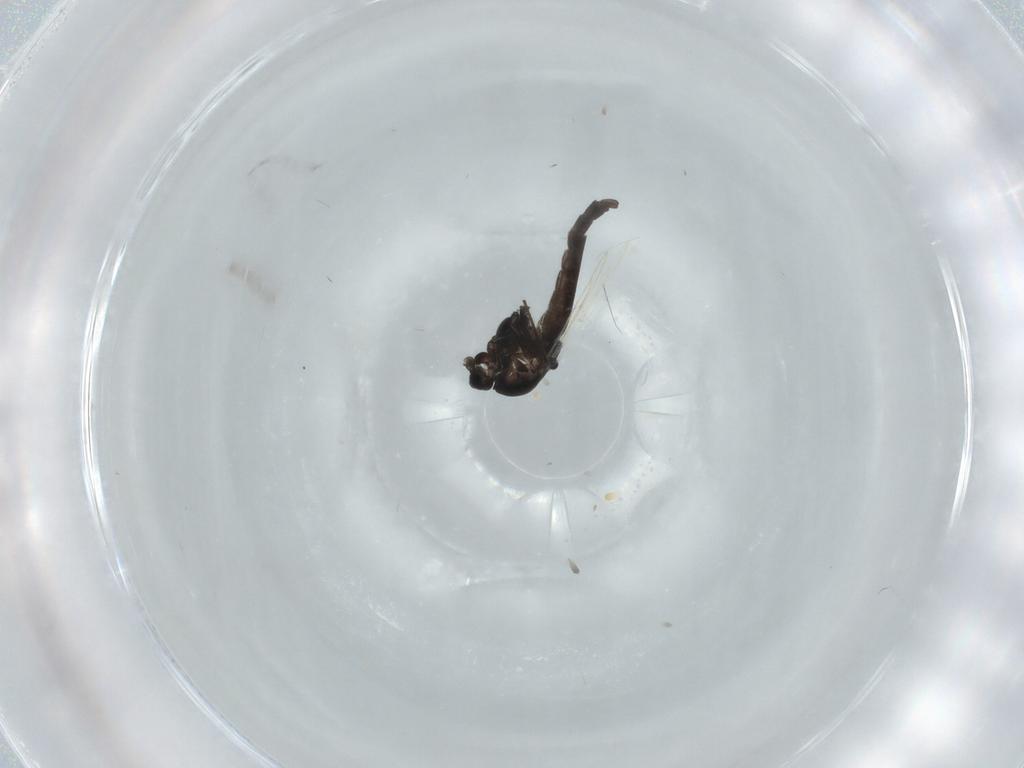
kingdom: Animalia
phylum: Arthropoda
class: Insecta
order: Diptera
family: Chironomidae
